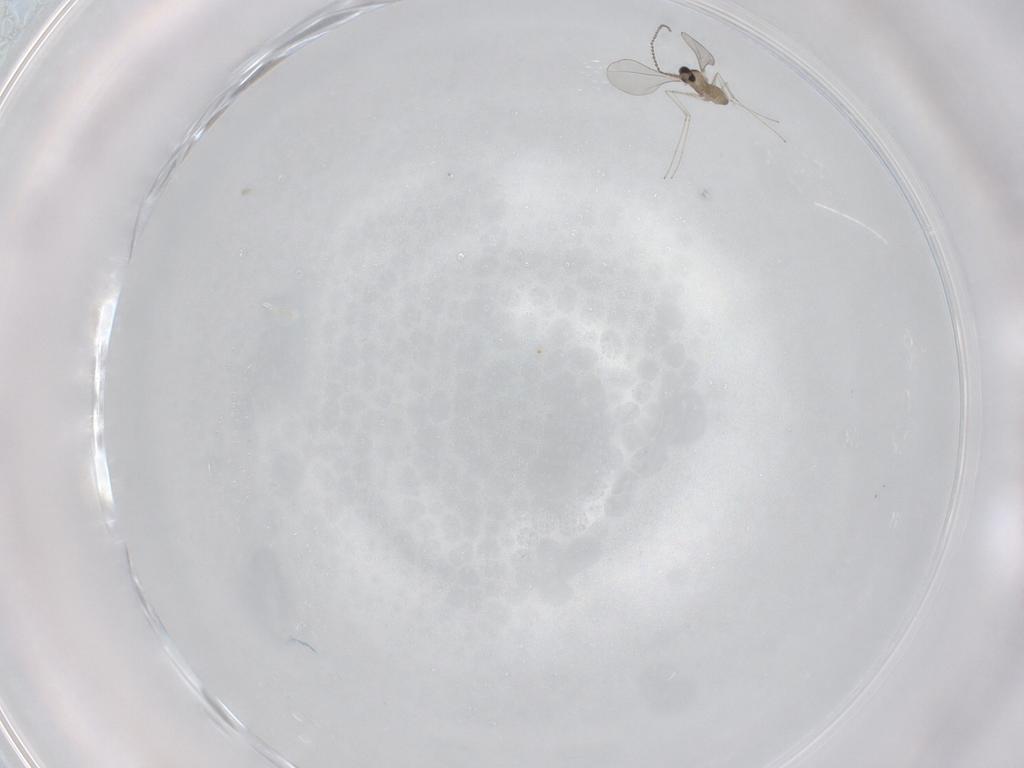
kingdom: Animalia
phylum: Arthropoda
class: Insecta
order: Diptera
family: Cecidomyiidae
